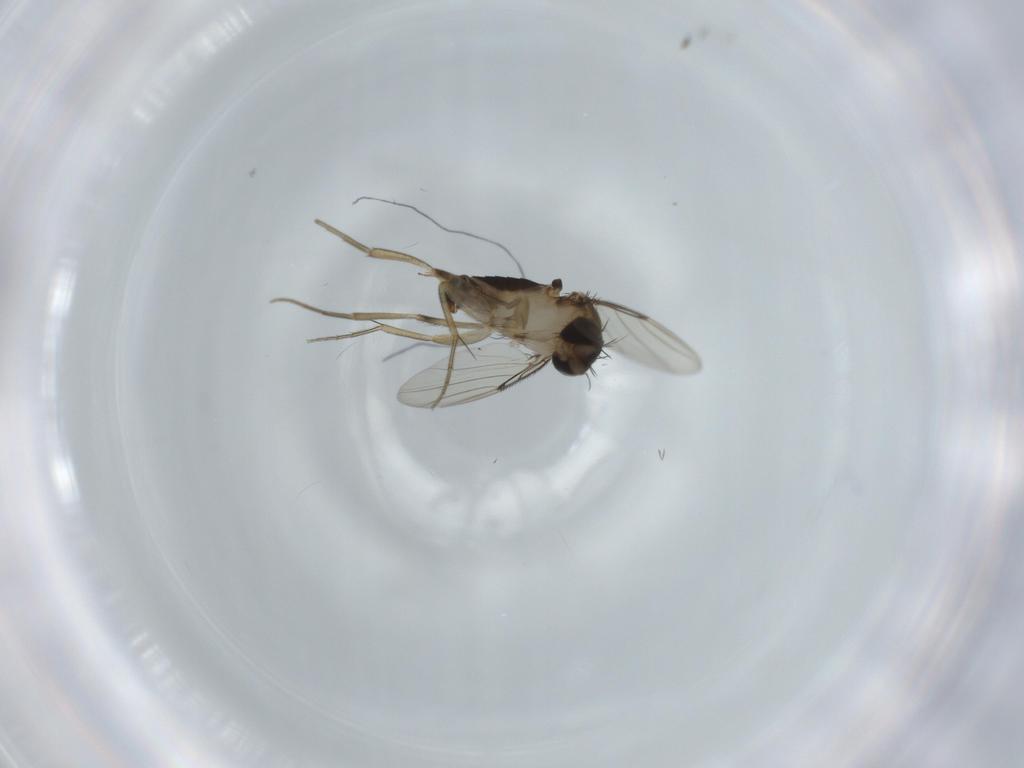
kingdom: Animalia
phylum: Arthropoda
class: Insecta
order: Diptera
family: Phoridae
